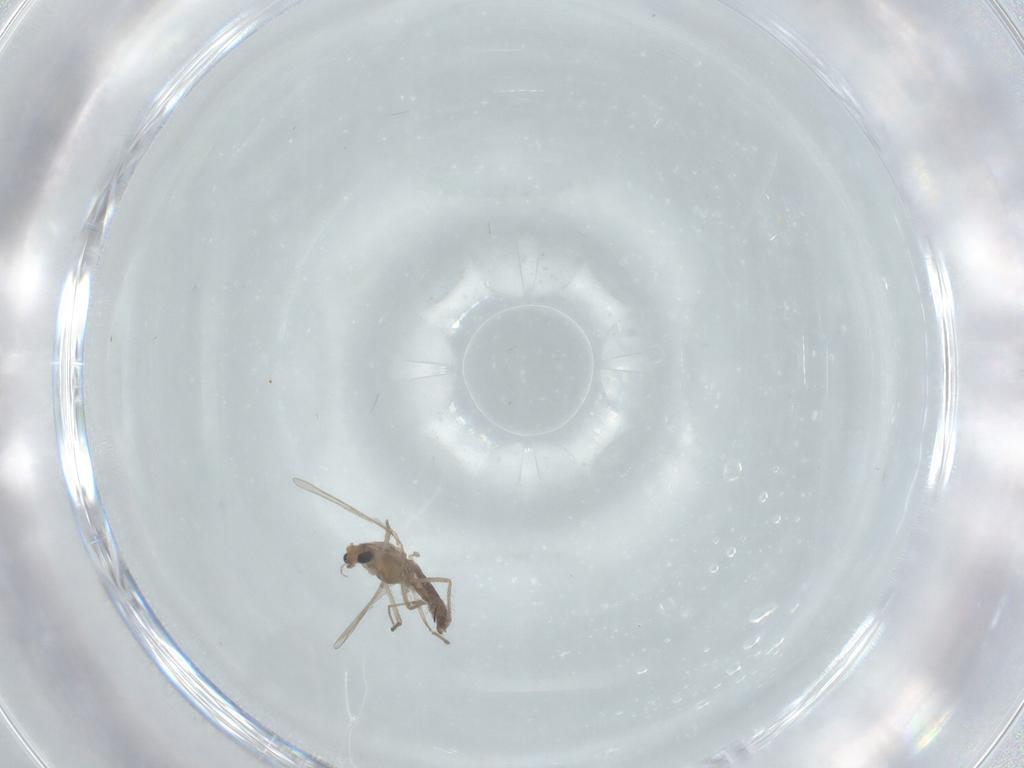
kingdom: Animalia
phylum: Arthropoda
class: Insecta
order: Diptera
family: Chironomidae
